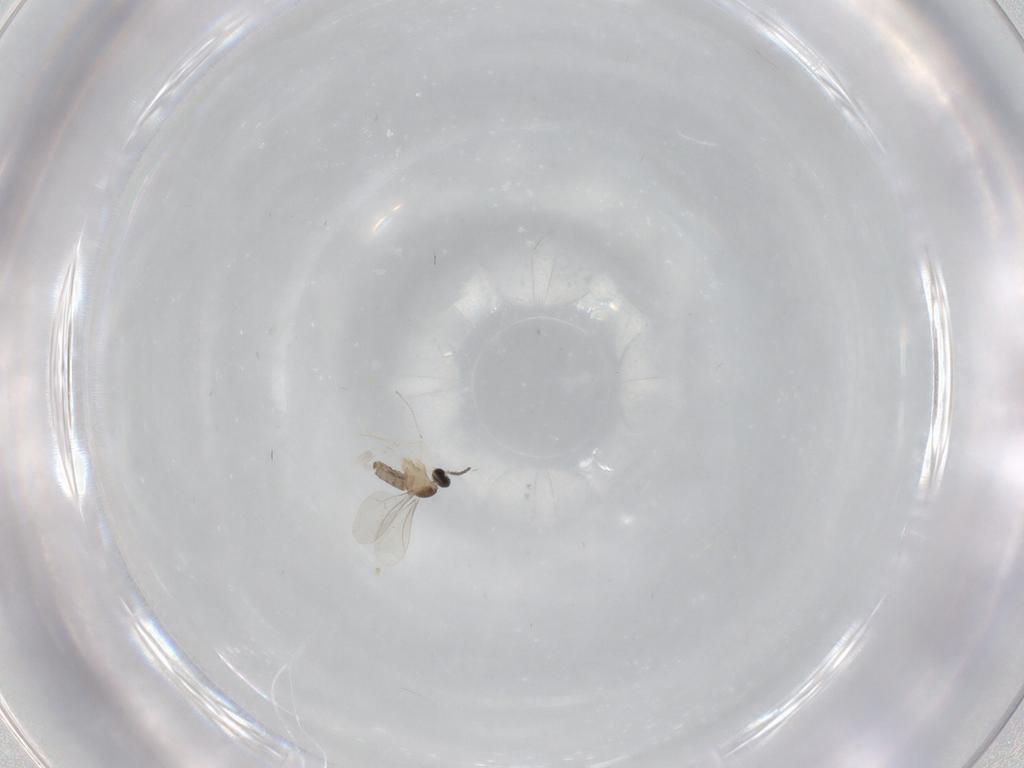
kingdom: Animalia
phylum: Arthropoda
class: Insecta
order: Diptera
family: Cecidomyiidae
